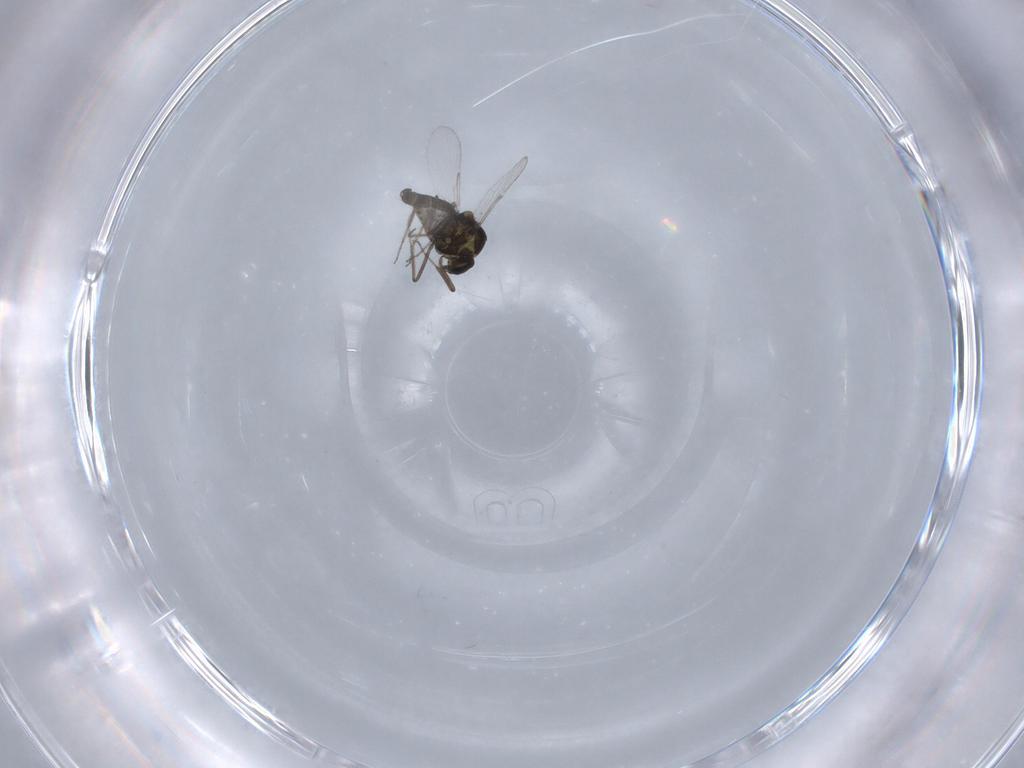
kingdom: Animalia
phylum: Arthropoda
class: Insecta
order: Diptera
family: Ceratopogonidae
